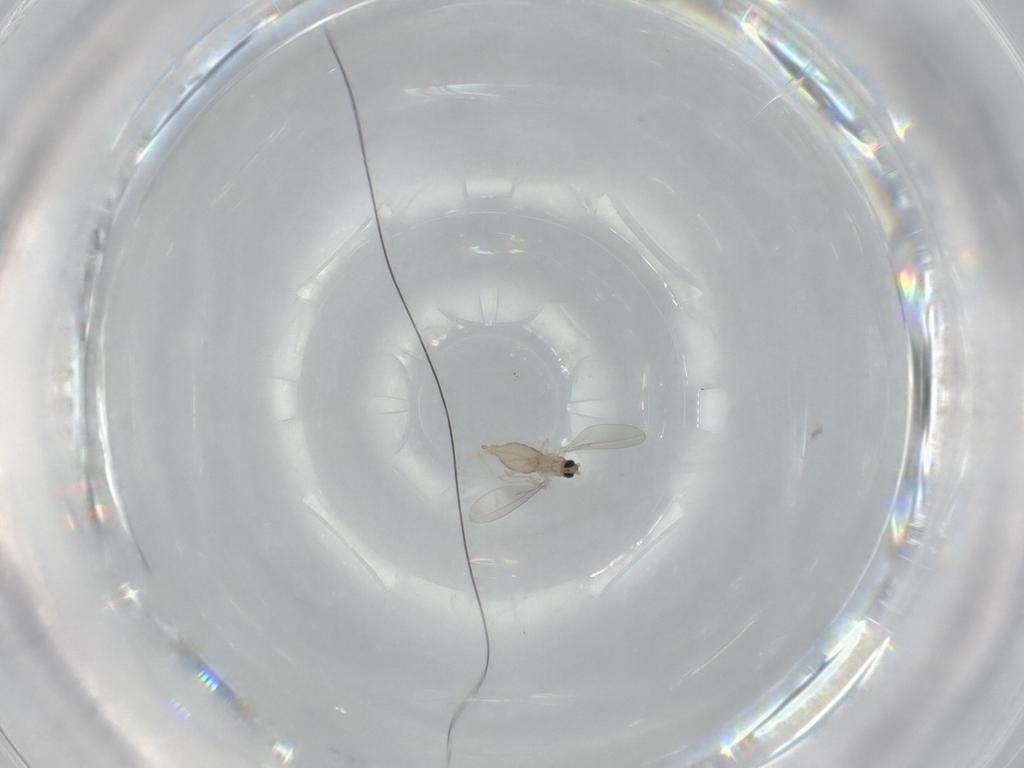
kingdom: Animalia
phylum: Arthropoda
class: Insecta
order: Diptera
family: Cecidomyiidae
